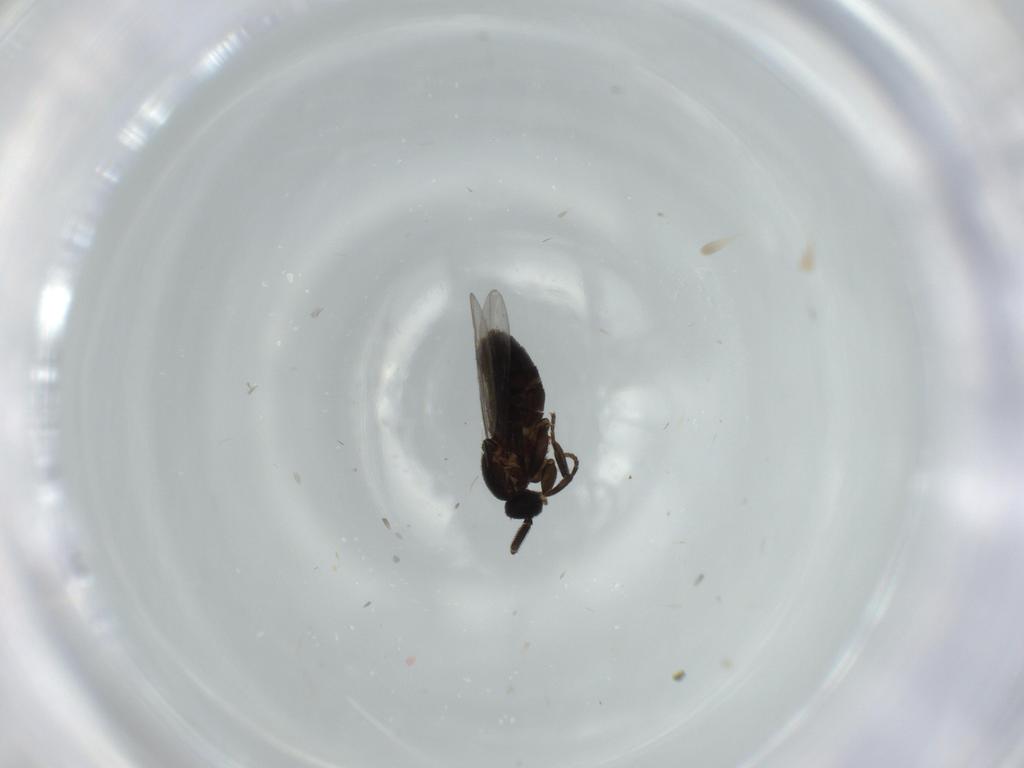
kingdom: Animalia
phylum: Arthropoda
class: Insecta
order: Diptera
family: Scatopsidae
